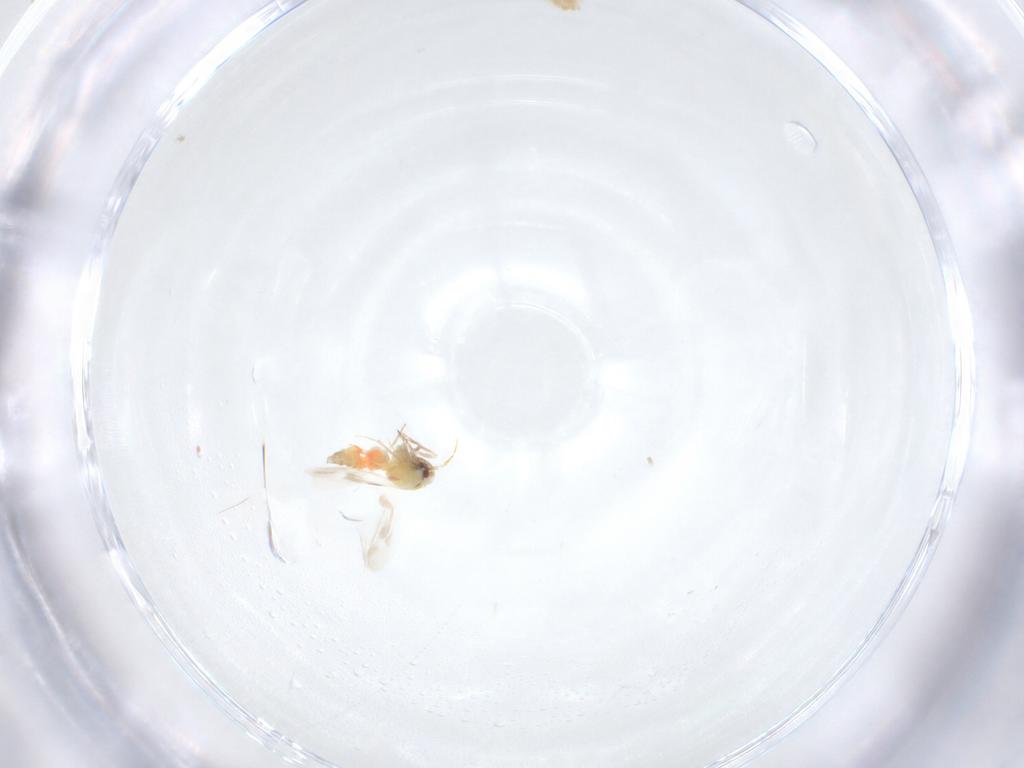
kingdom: Animalia
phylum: Arthropoda
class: Insecta
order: Hemiptera
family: Aleyrodidae
